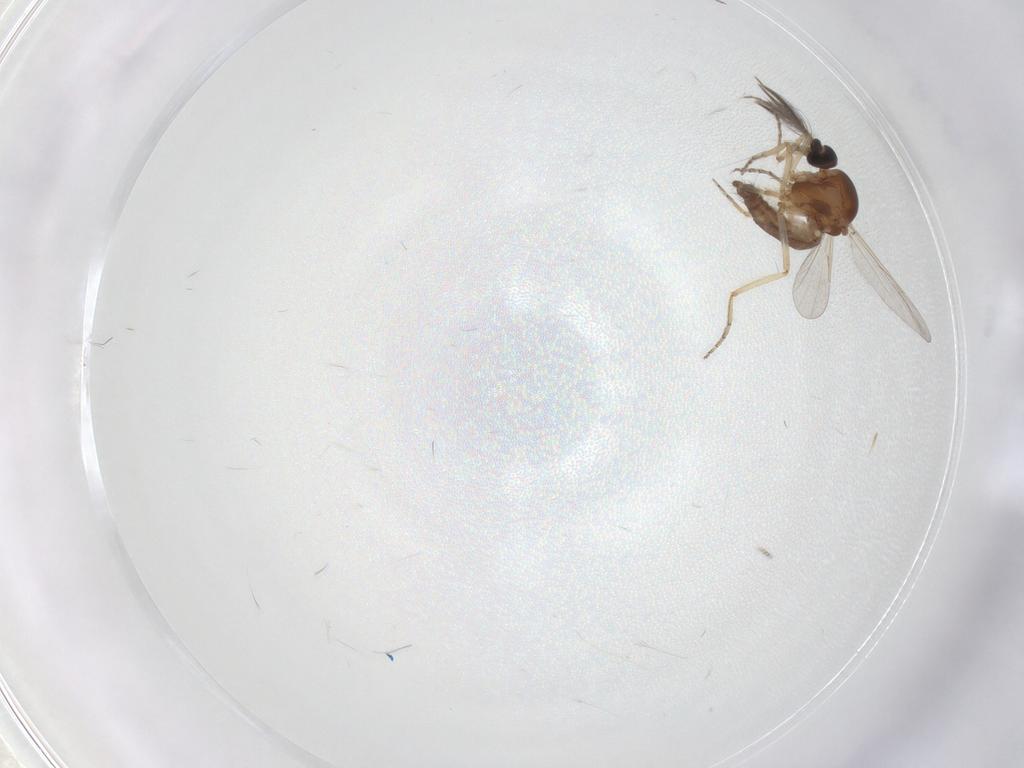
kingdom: Animalia
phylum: Arthropoda
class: Insecta
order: Diptera
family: Ceratopogonidae
